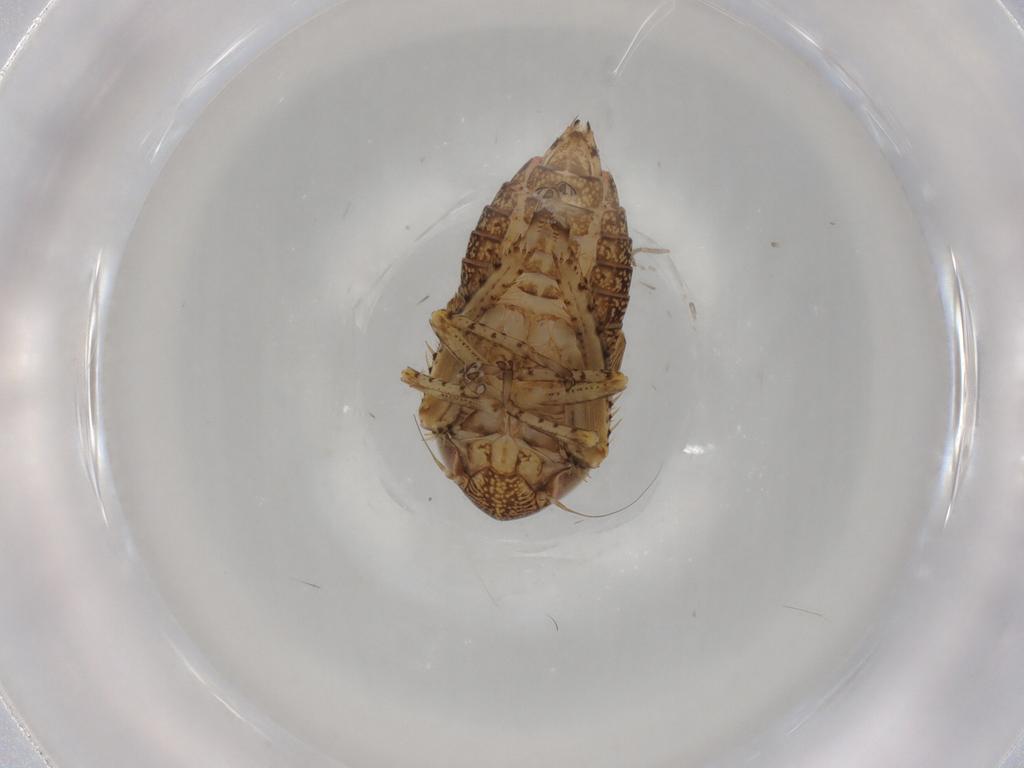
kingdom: Animalia
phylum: Arthropoda
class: Insecta
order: Hemiptera
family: Cicadellidae
